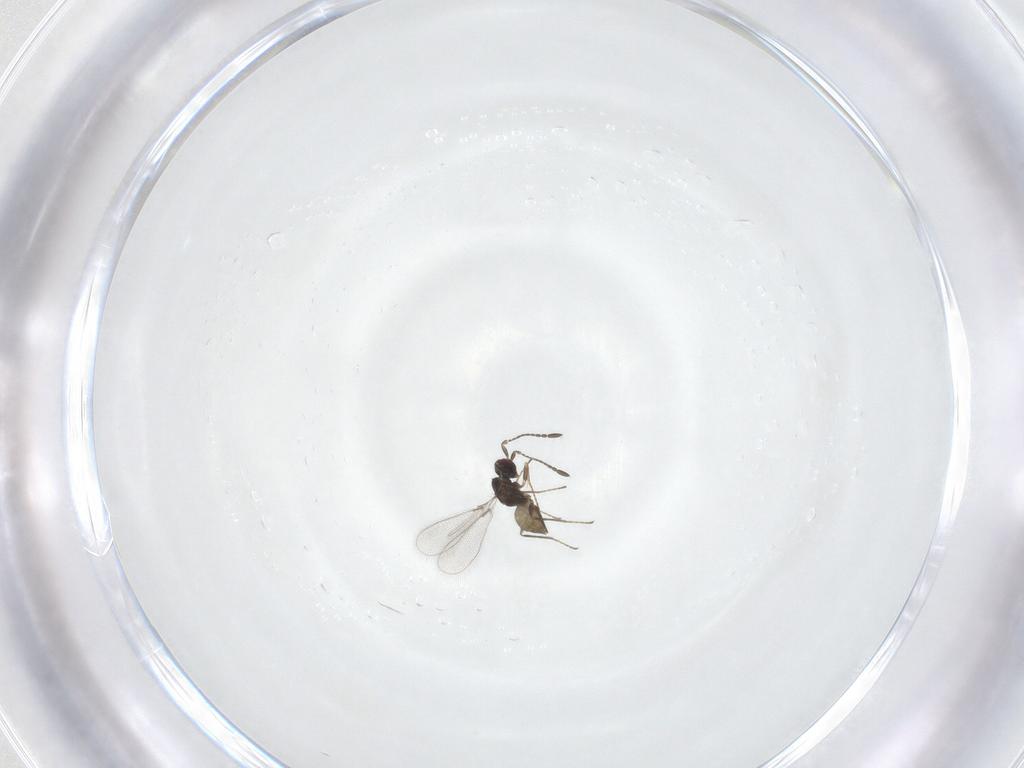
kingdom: Animalia
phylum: Arthropoda
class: Insecta
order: Hymenoptera
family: Mymaridae
